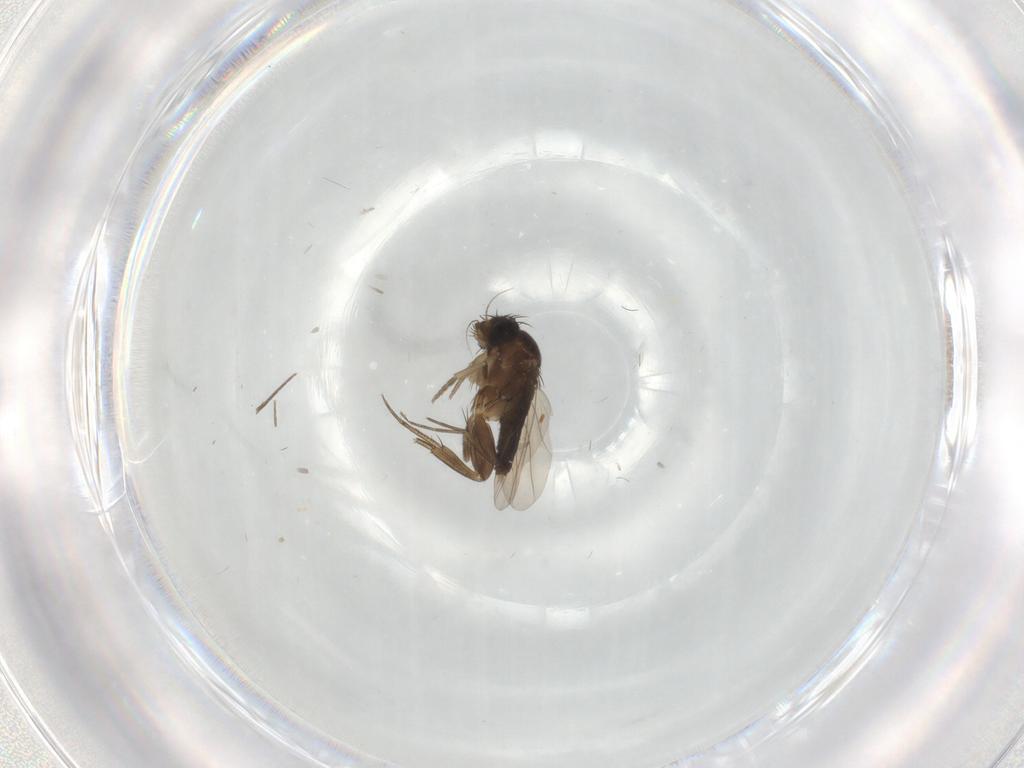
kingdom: Animalia
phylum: Arthropoda
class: Insecta
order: Diptera
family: Phoridae
